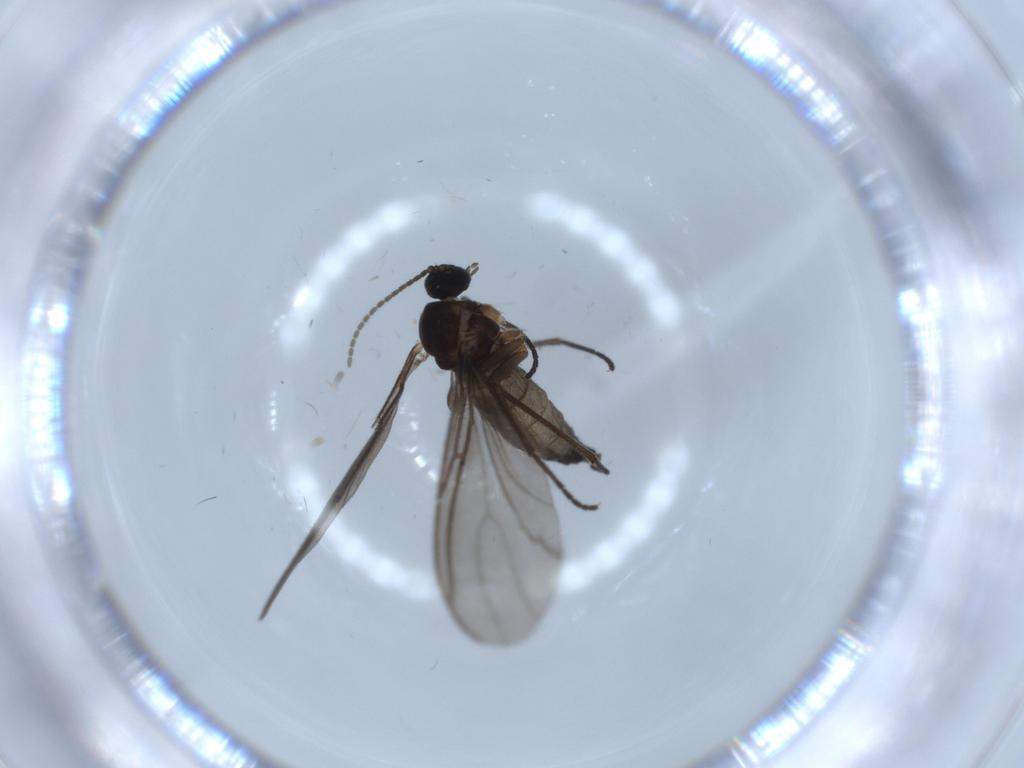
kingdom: Animalia
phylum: Arthropoda
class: Insecta
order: Diptera
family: Sciaridae
